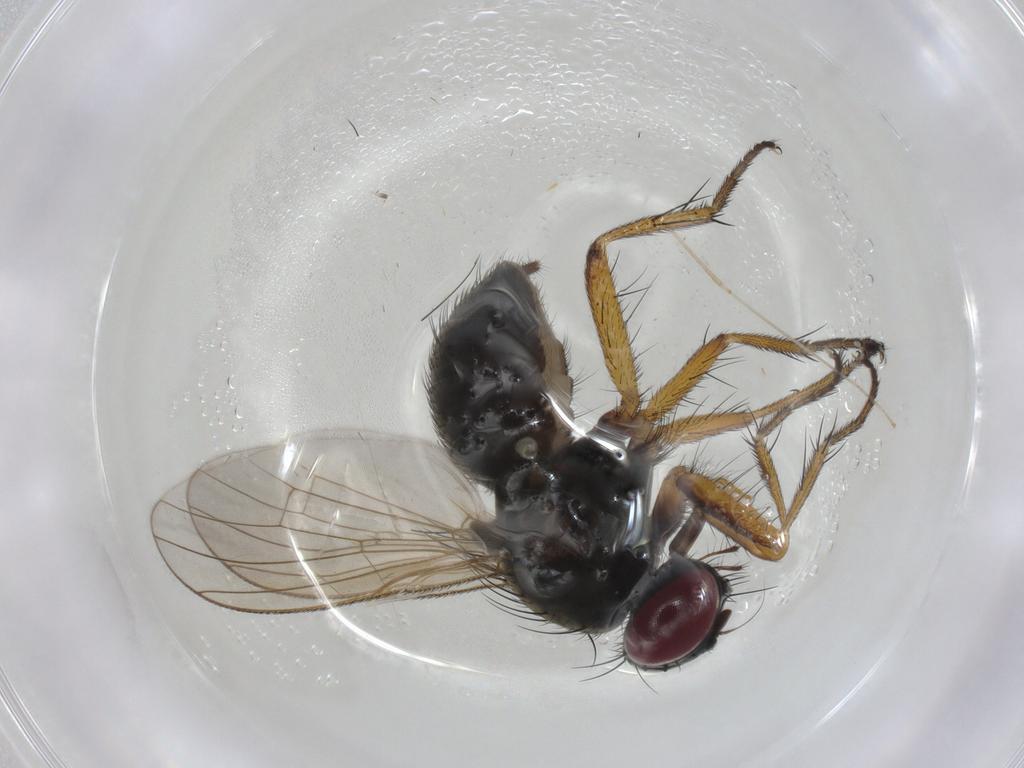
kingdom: Animalia
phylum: Arthropoda
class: Insecta
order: Diptera
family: Muscidae
